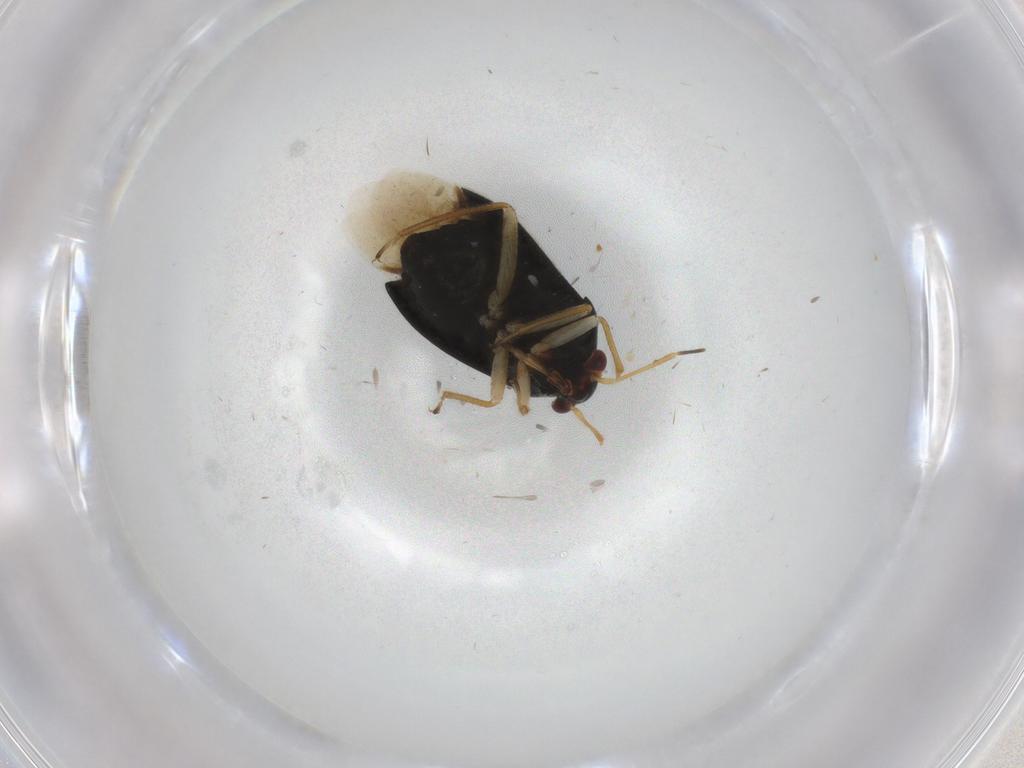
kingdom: Animalia
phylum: Arthropoda
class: Insecta
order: Hemiptera
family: Miridae
